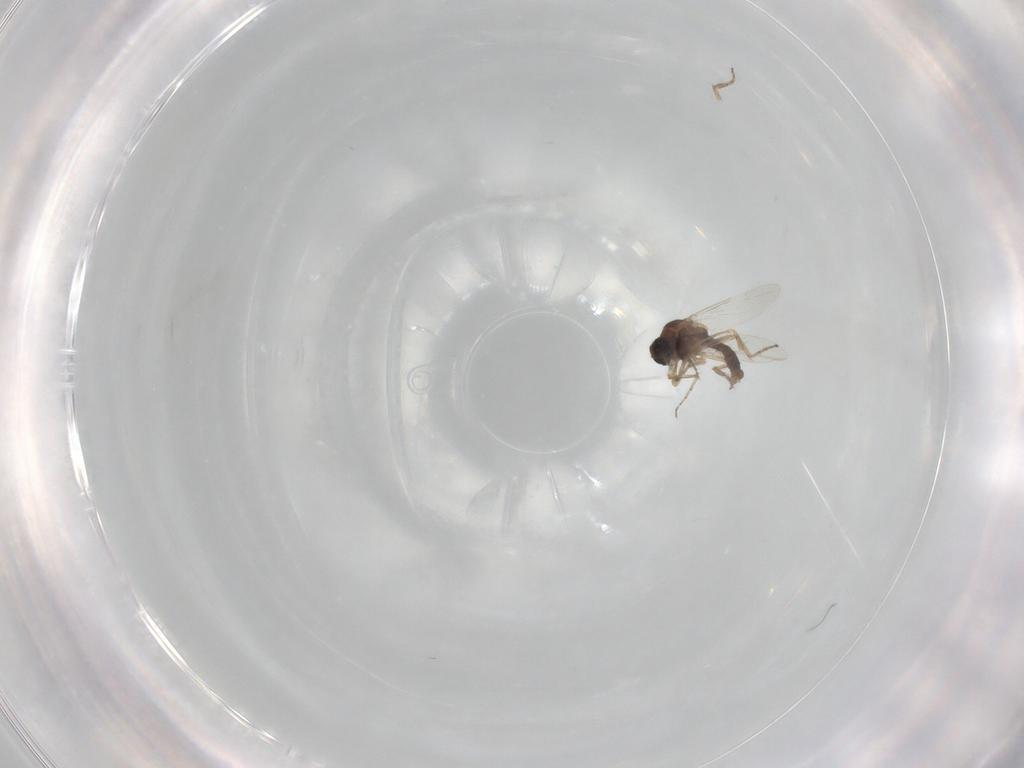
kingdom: Animalia
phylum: Arthropoda
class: Insecta
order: Diptera
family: Ceratopogonidae
